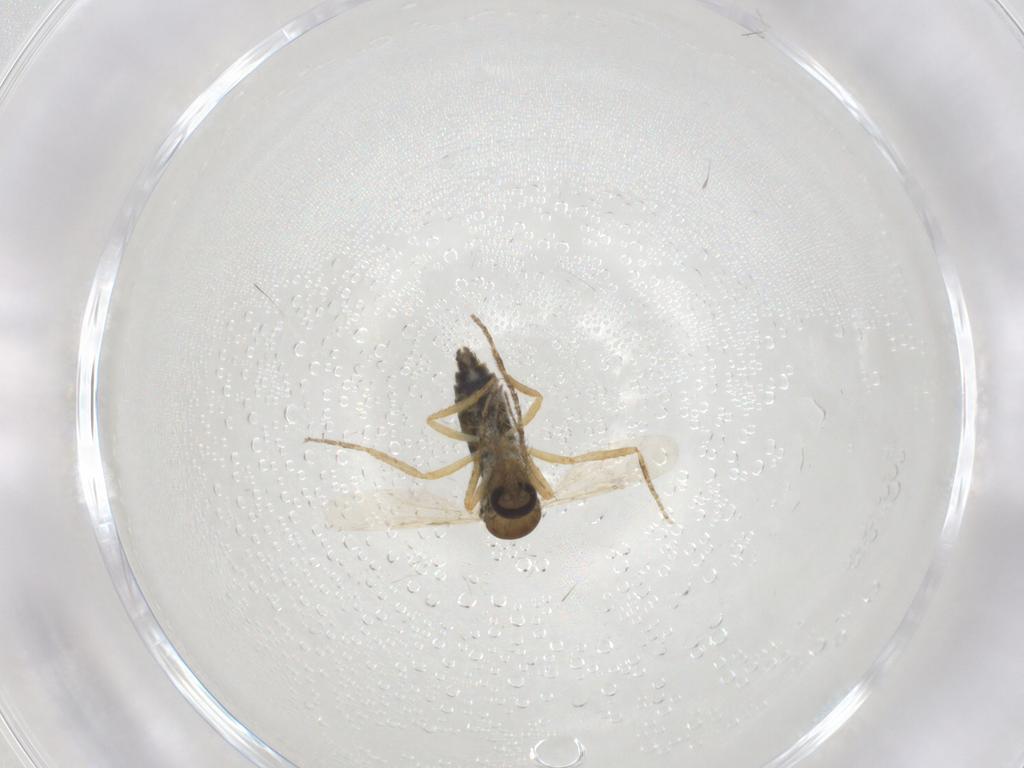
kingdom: Animalia
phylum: Arthropoda
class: Insecta
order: Diptera
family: Ceratopogonidae
